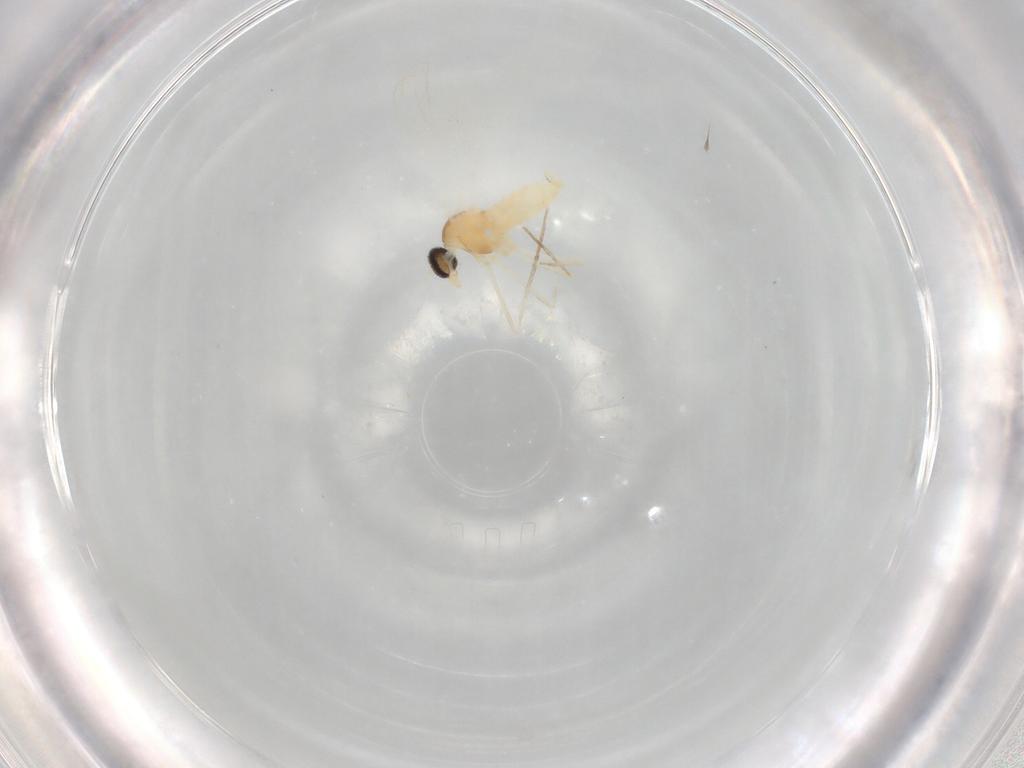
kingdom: Animalia
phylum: Arthropoda
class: Insecta
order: Diptera
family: Cecidomyiidae
